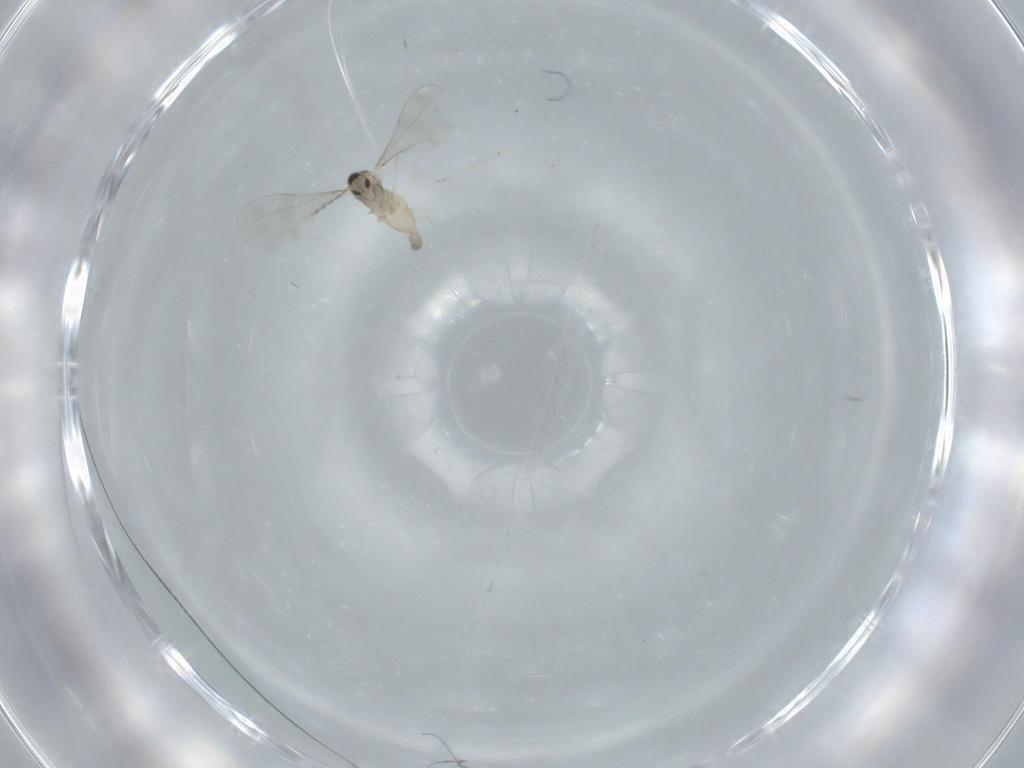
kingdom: Animalia
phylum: Arthropoda
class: Insecta
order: Diptera
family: Cecidomyiidae
